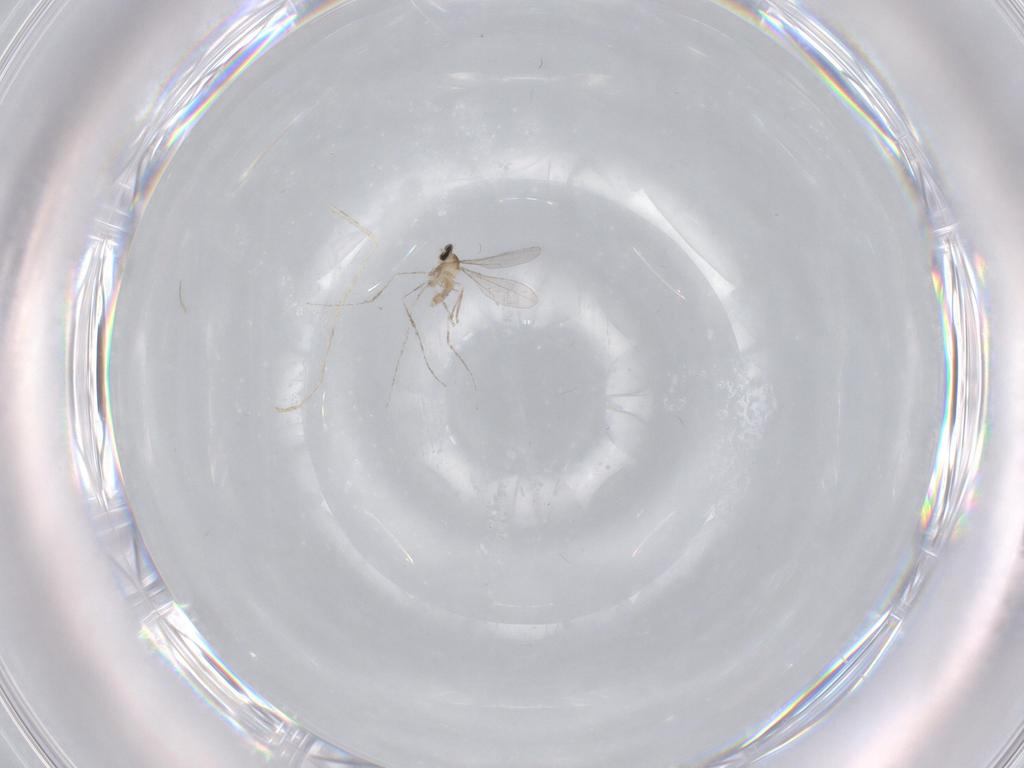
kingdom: Animalia
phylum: Arthropoda
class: Insecta
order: Diptera
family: Cecidomyiidae
